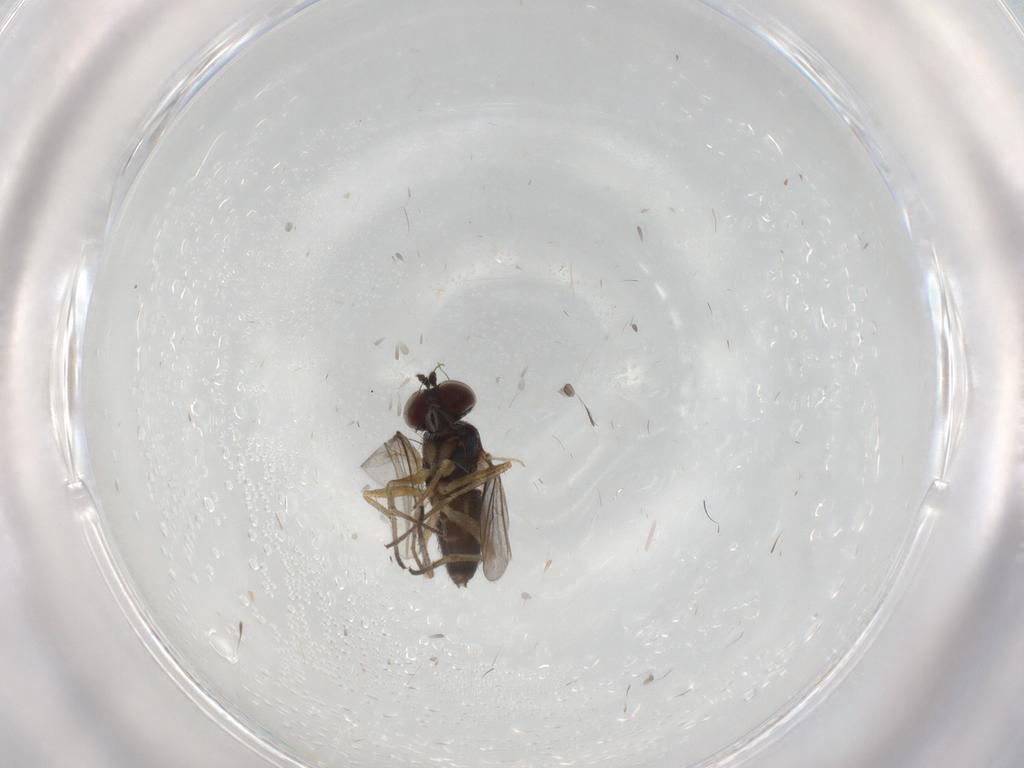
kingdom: Animalia
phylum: Arthropoda
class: Insecta
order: Diptera
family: Dolichopodidae
